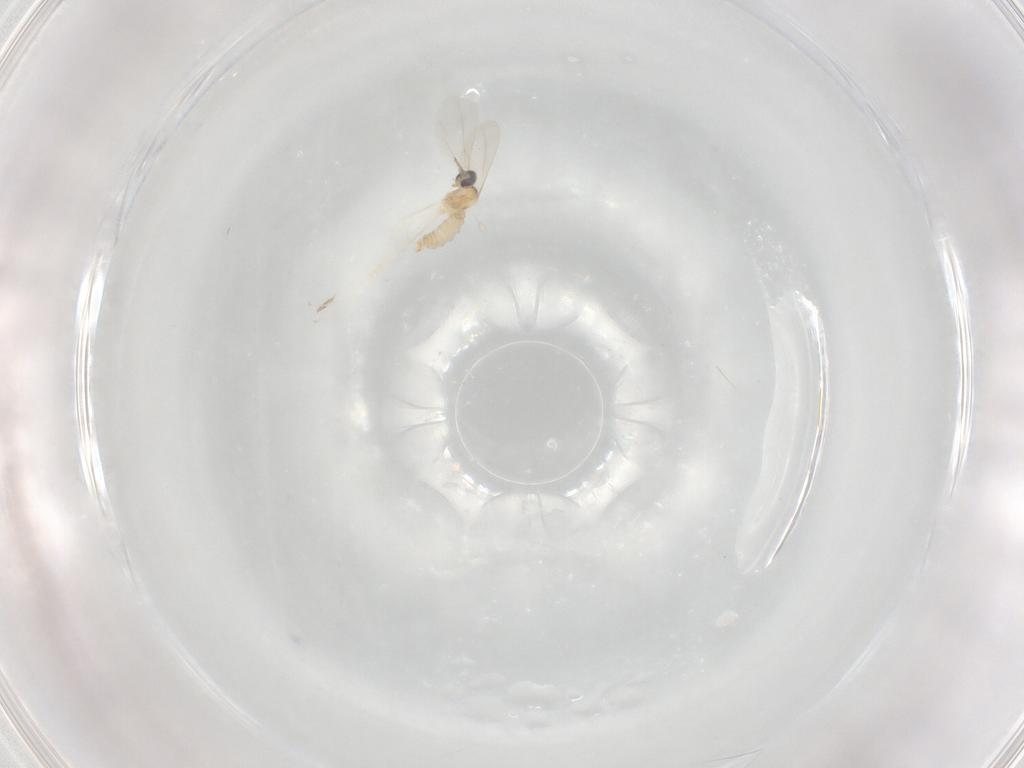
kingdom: Animalia
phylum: Arthropoda
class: Insecta
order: Diptera
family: Cecidomyiidae
